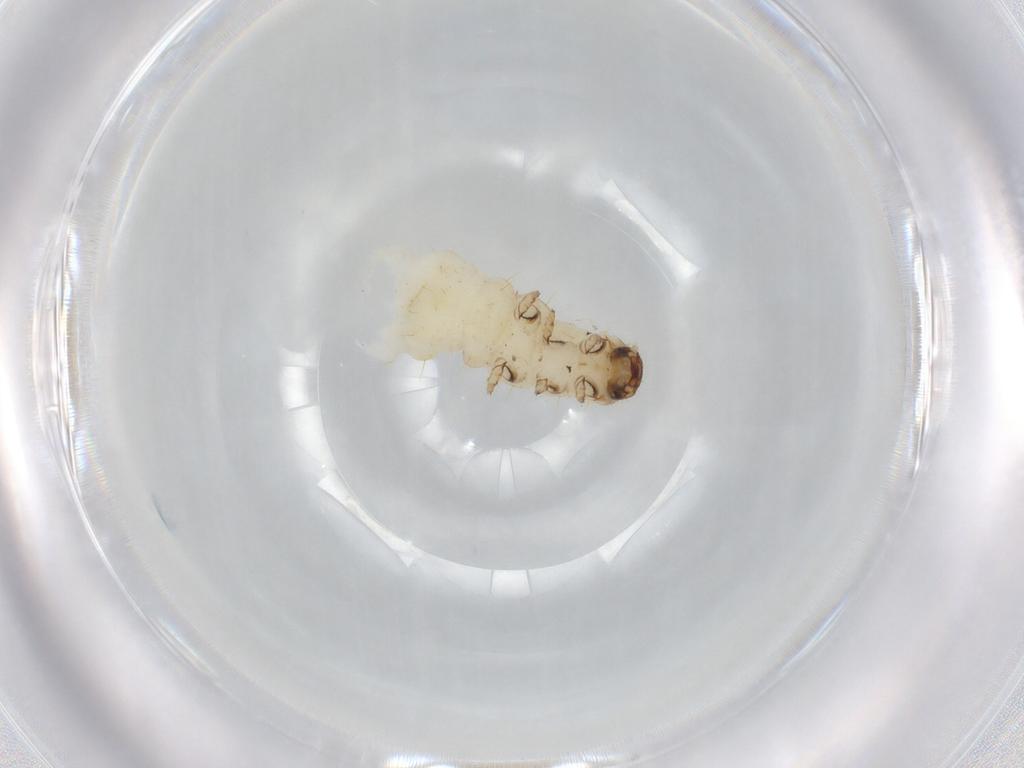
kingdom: Animalia
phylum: Arthropoda
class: Insecta
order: Coleoptera
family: Chrysomelidae
